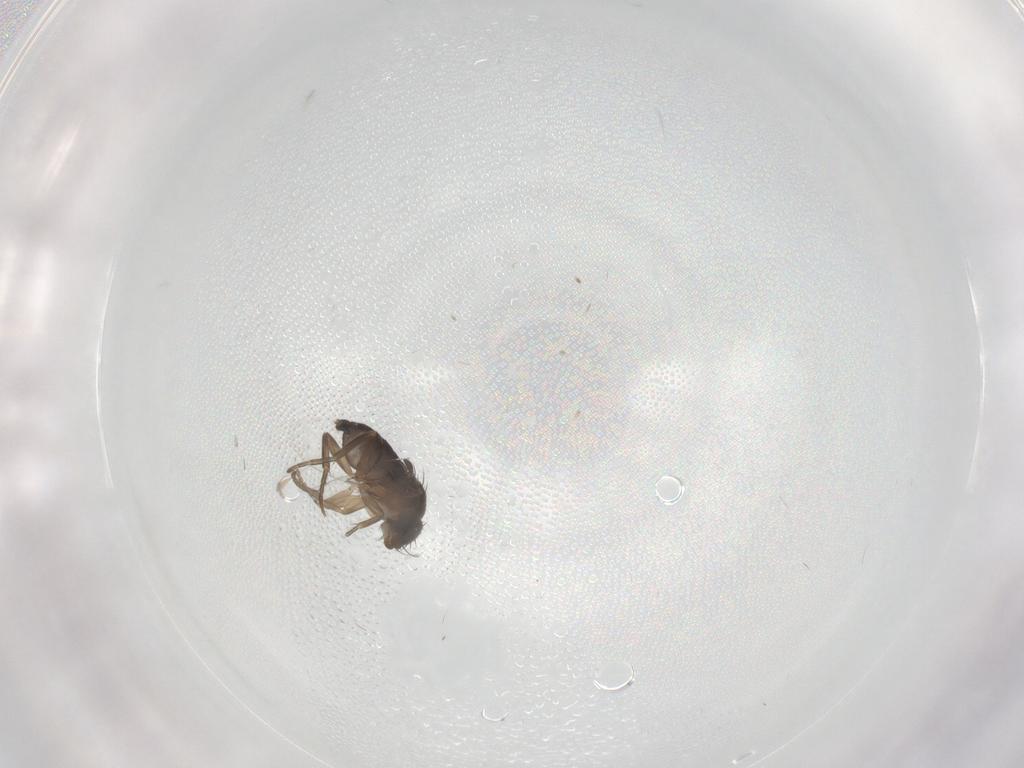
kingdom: Animalia
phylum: Arthropoda
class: Insecta
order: Diptera
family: Phoridae
